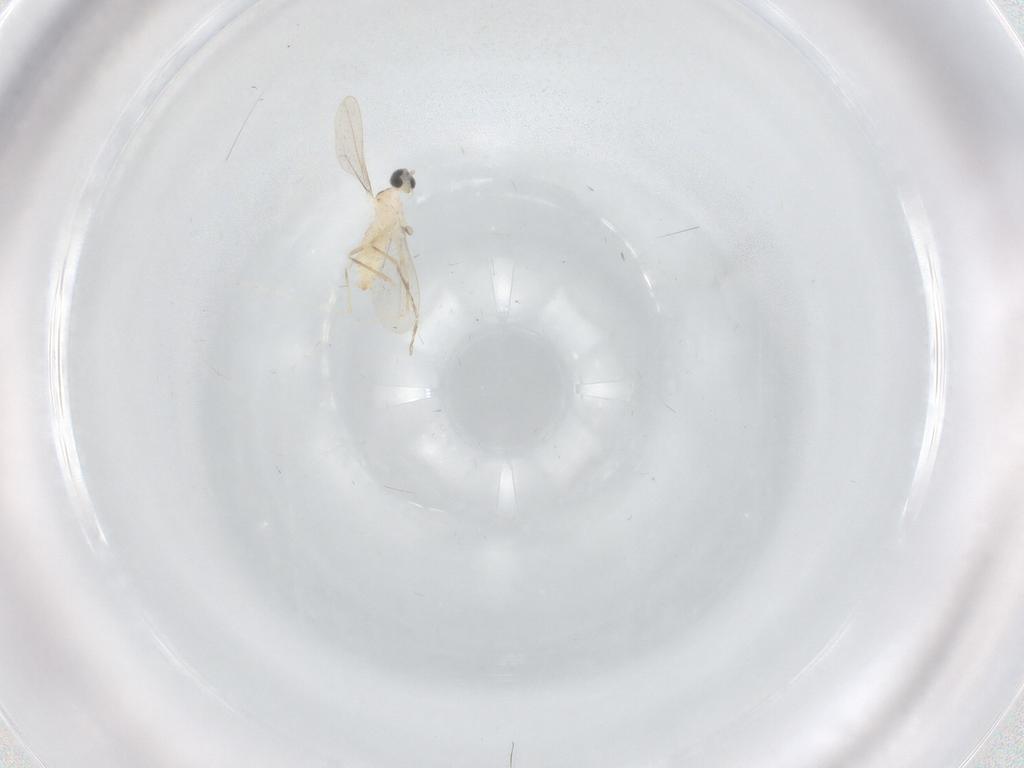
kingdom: Animalia
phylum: Arthropoda
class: Insecta
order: Diptera
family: Cecidomyiidae
